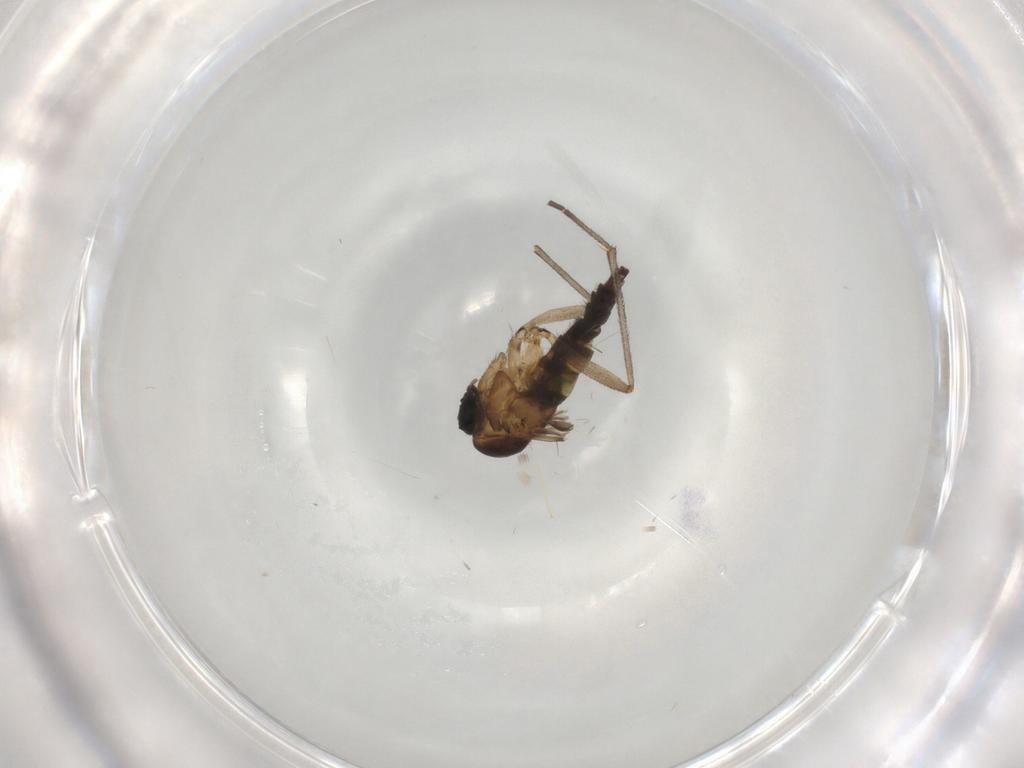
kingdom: Animalia
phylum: Arthropoda
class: Insecta
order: Diptera
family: Sciaridae
